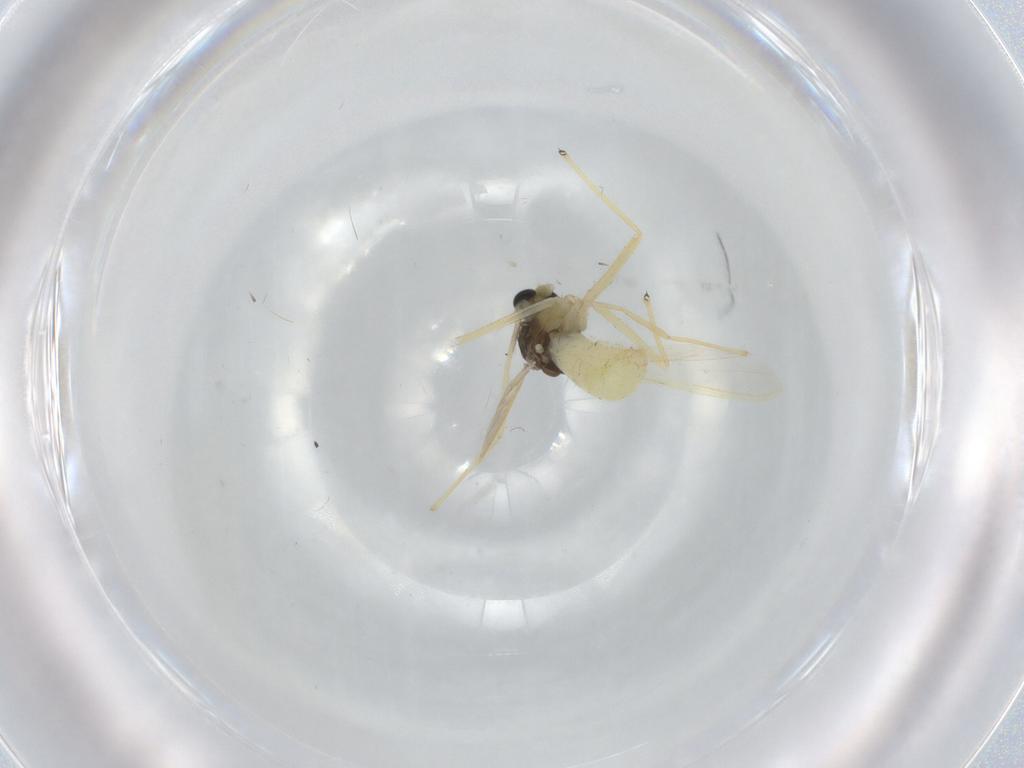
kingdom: Animalia
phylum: Arthropoda
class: Insecta
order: Diptera
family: Chironomidae
